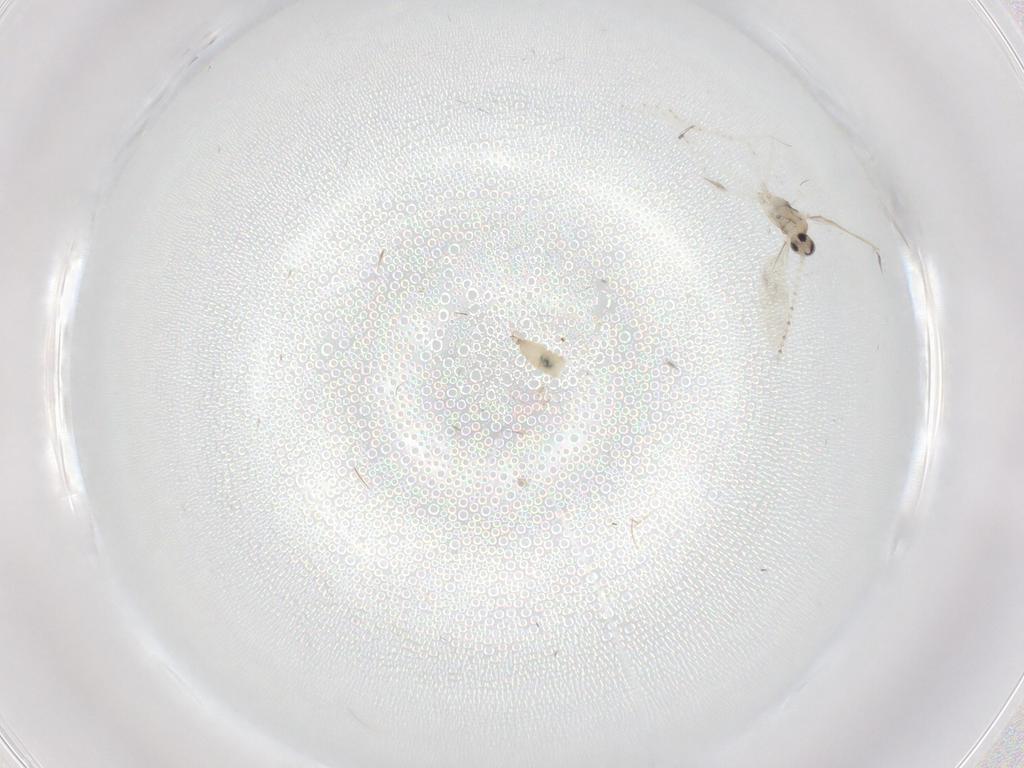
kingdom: Animalia
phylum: Arthropoda
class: Insecta
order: Diptera
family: Cecidomyiidae
